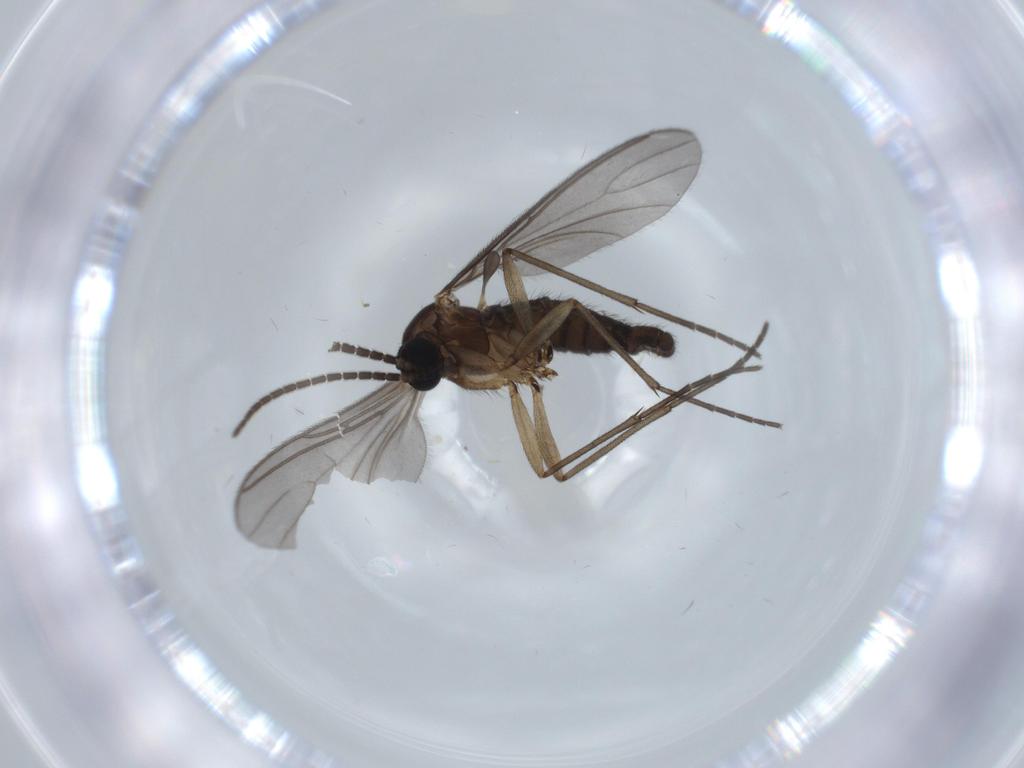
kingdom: Animalia
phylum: Arthropoda
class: Insecta
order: Diptera
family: Sciaridae
